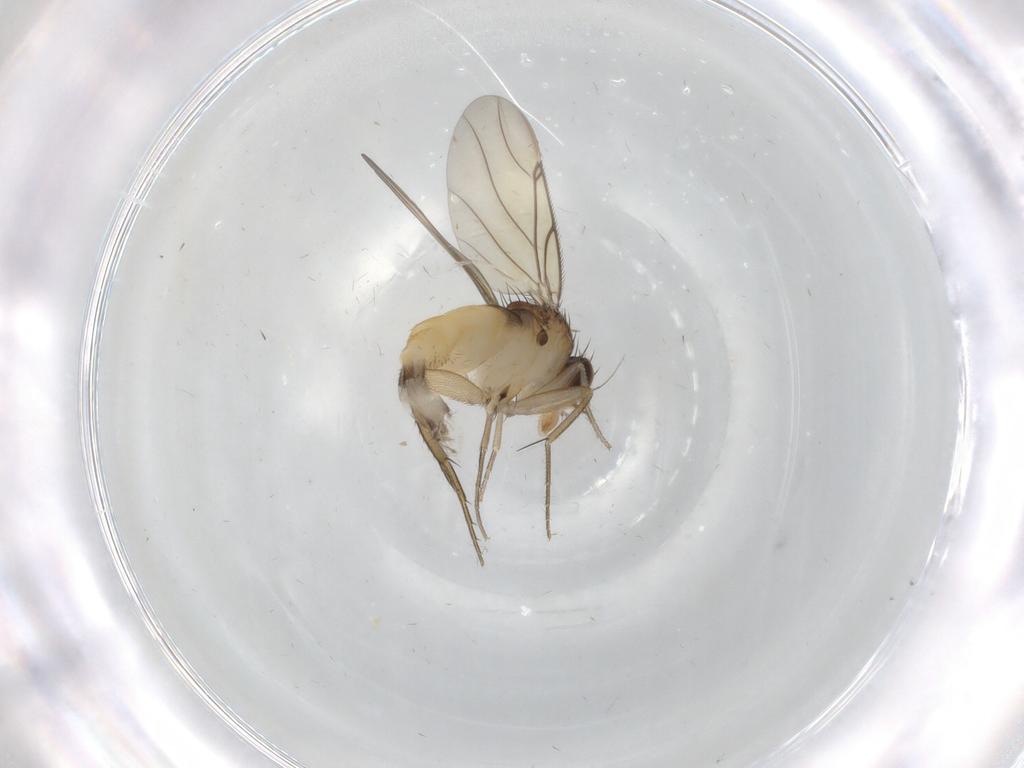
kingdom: Animalia
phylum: Arthropoda
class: Insecta
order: Diptera
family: Phoridae
